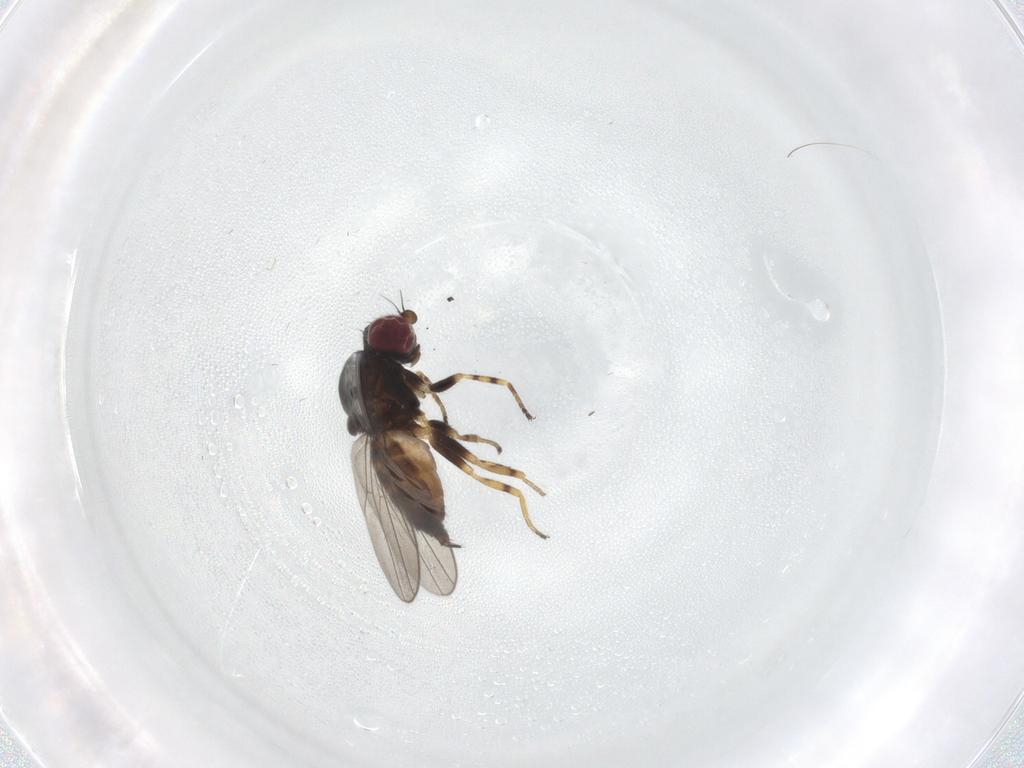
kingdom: Animalia
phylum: Arthropoda
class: Insecta
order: Diptera
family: Chloropidae
